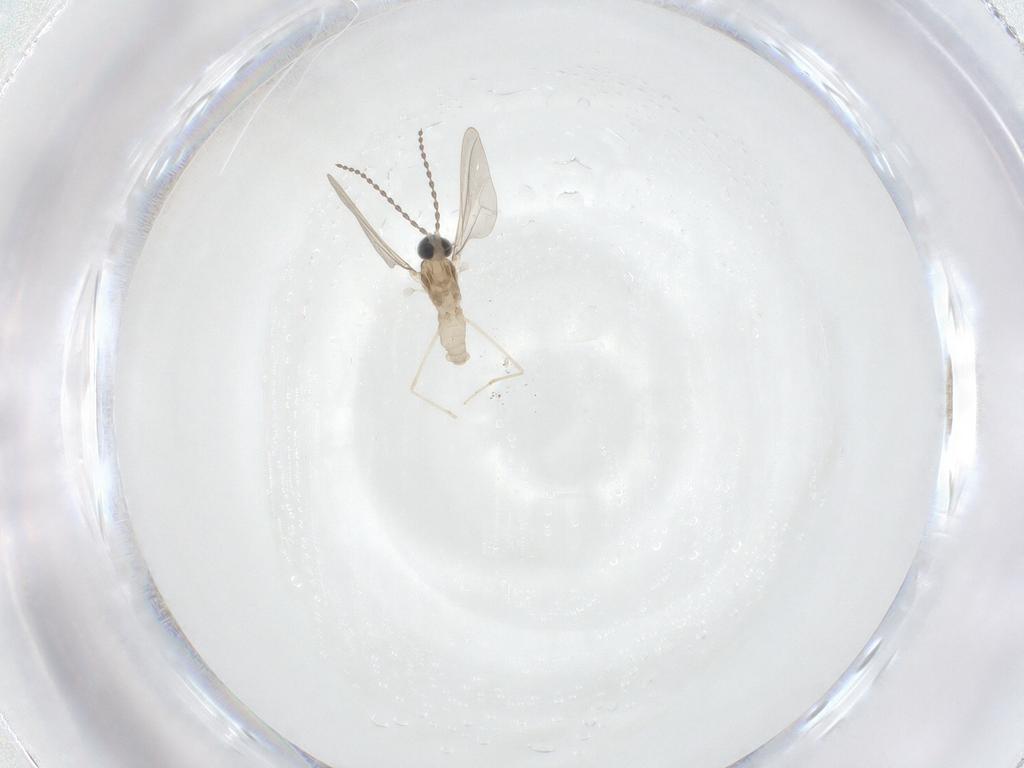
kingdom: Animalia
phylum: Arthropoda
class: Insecta
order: Diptera
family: Cecidomyiidae
